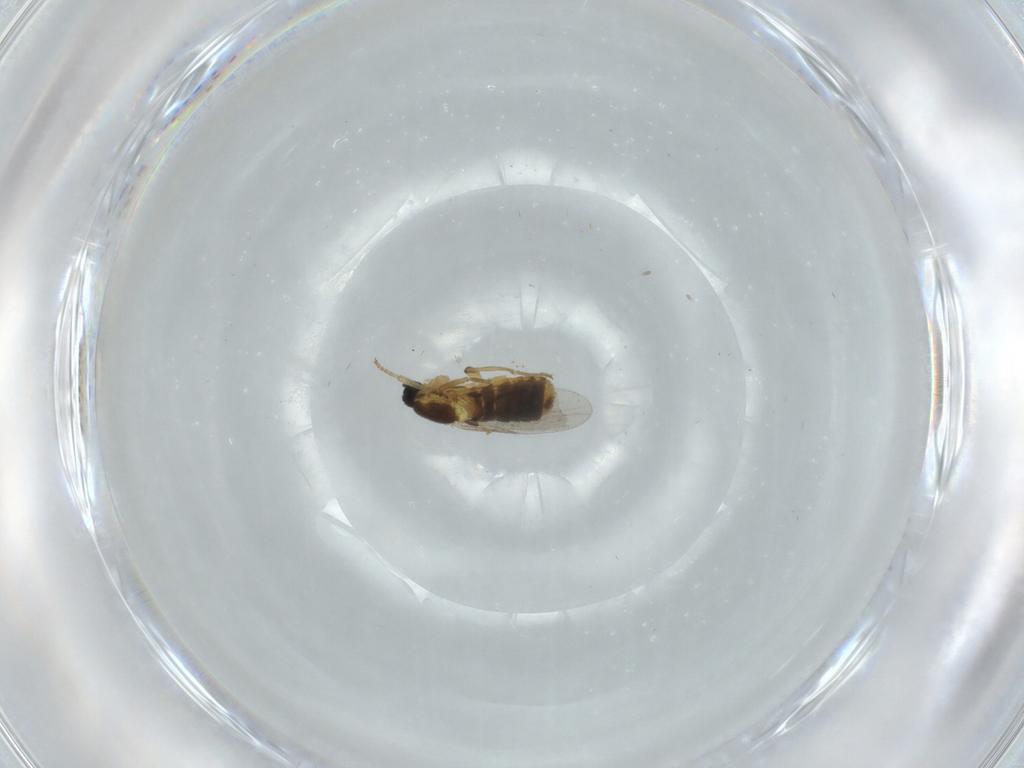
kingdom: Animalia
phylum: Arthropoda
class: Insecta
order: Diptera
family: Scatopsidae
